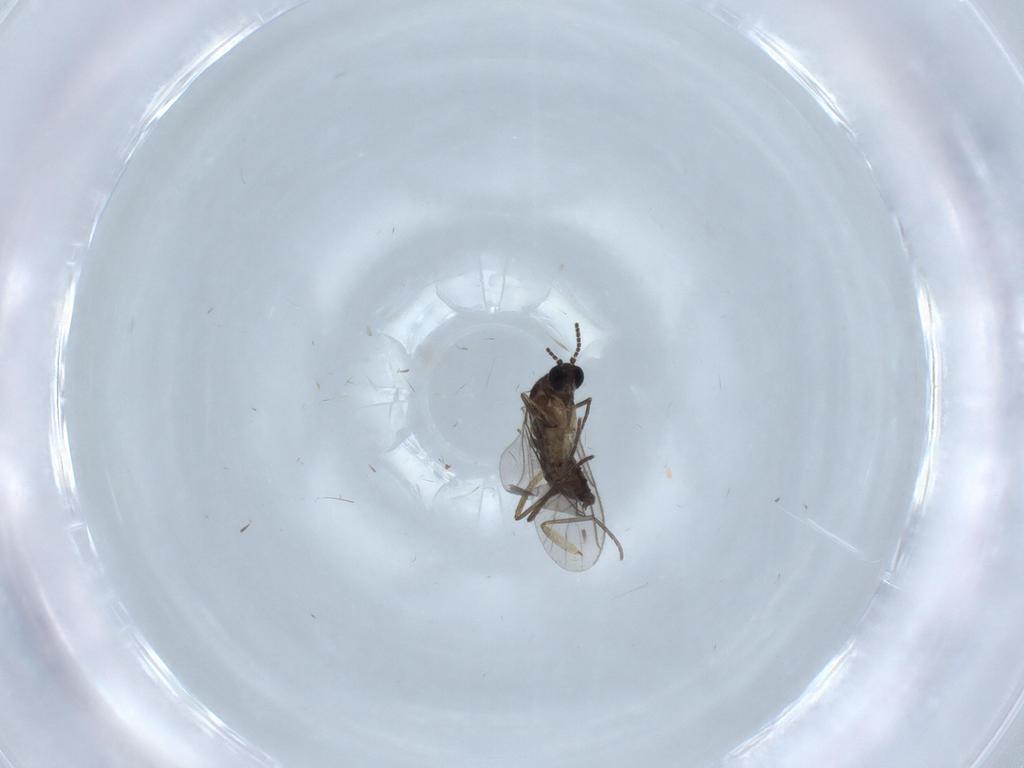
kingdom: Animalia
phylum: Arthropoda
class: Insecta
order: Diptera
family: Sciaridae
